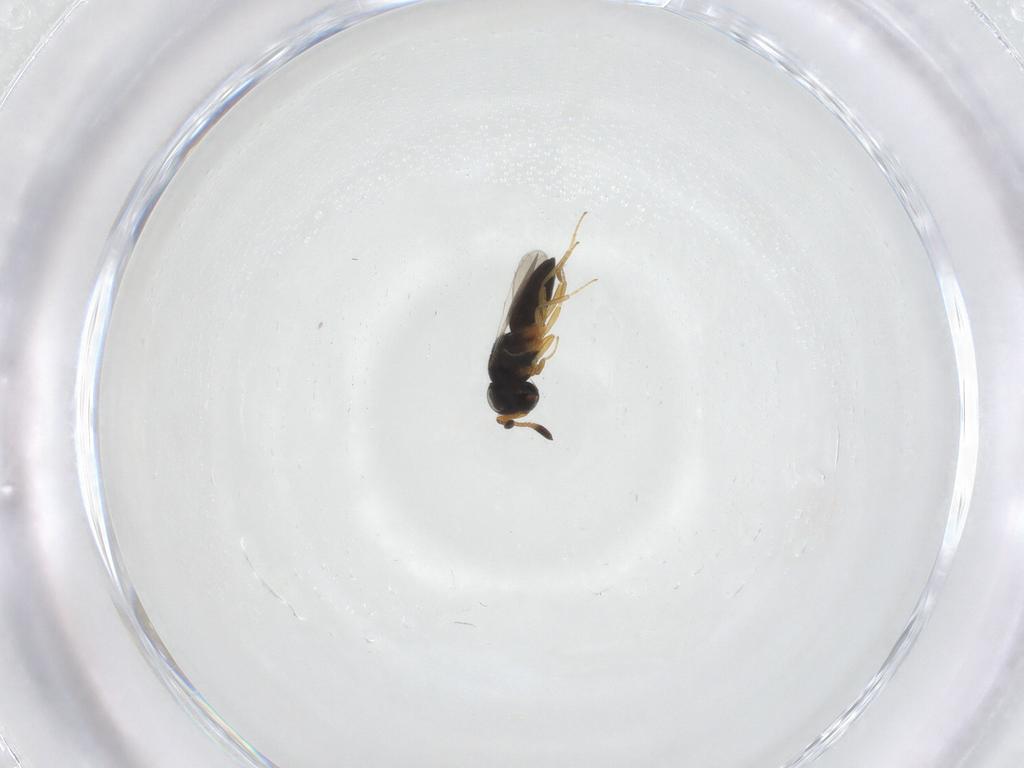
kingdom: Animalia
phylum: Arthropoda
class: Insecta
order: Hymenoptera
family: Scelionidae
